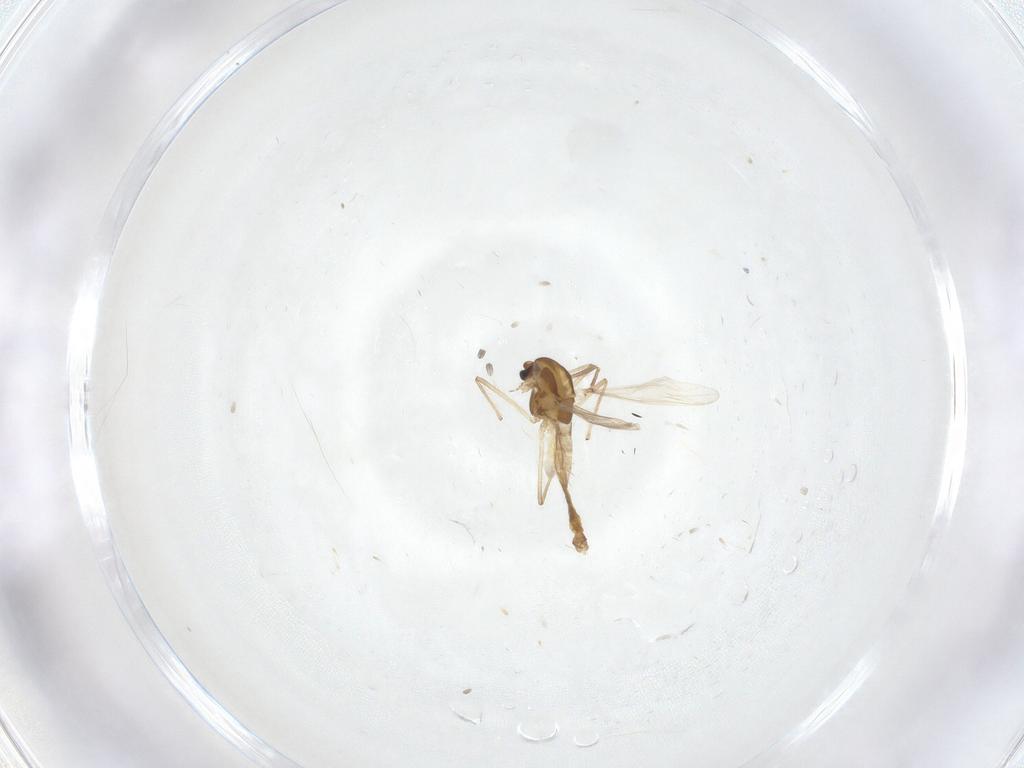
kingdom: Animalia
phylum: Arthropoda
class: Insecta
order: Diptera
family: Chironomidae
